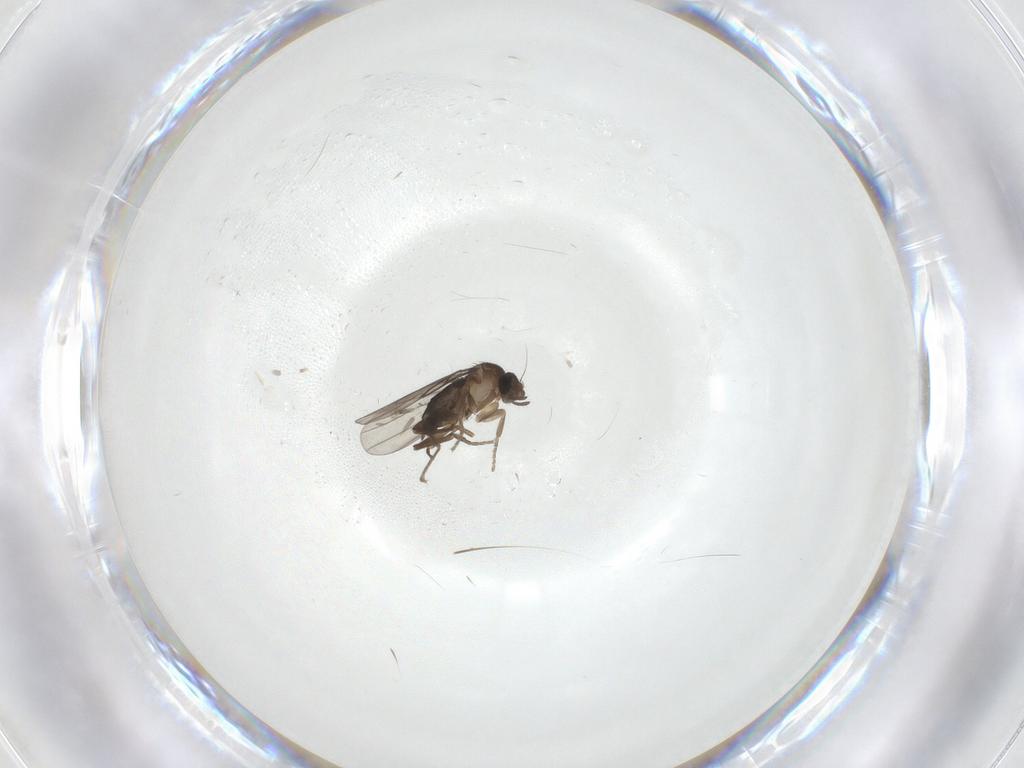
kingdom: Animalia
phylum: Arthropoda
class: Insecta
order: Diptera
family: Phoridae
